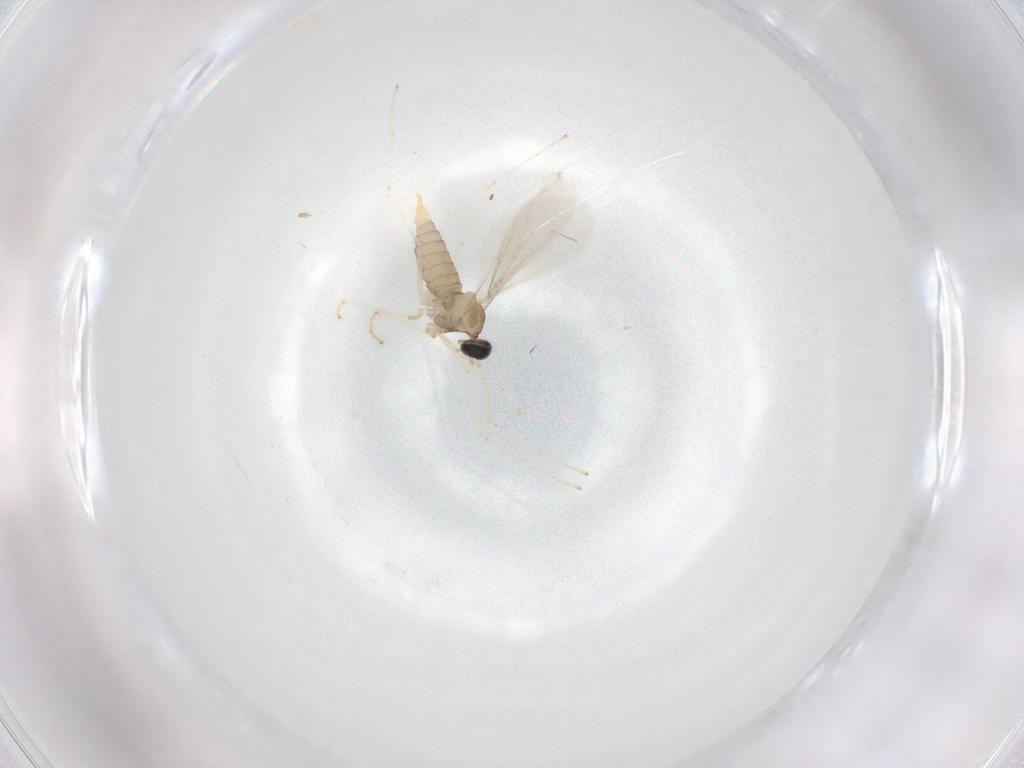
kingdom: Animalia
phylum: Arthropoda
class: Insecta
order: Diptera
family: Cecidomyiidae
